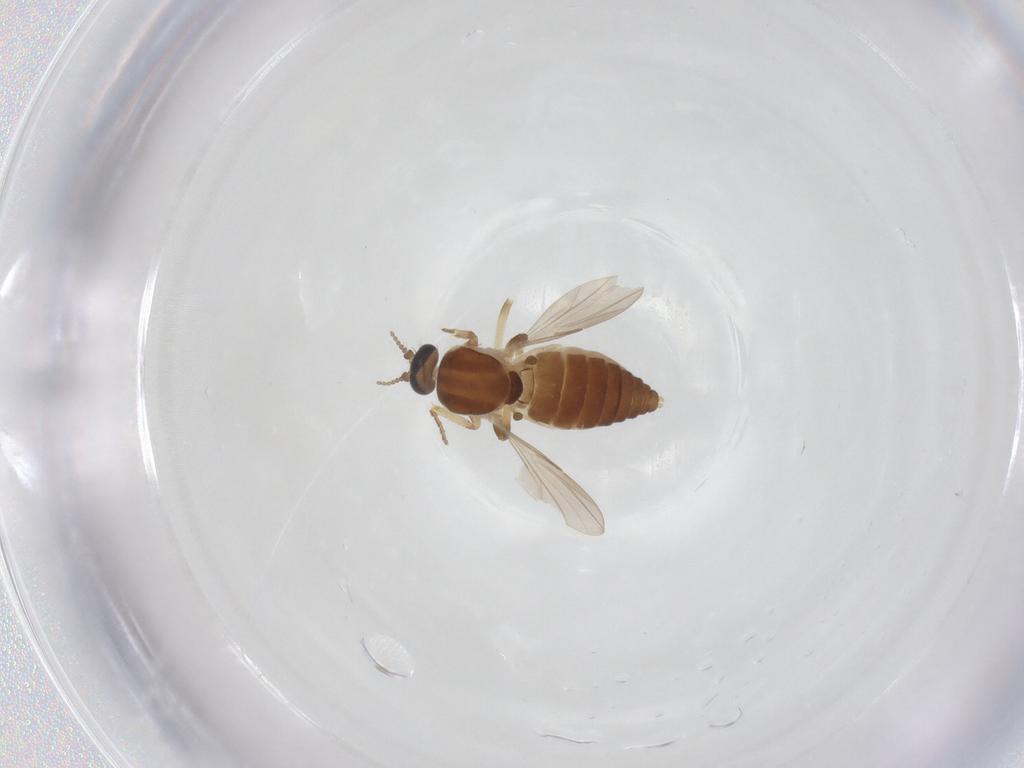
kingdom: Animalia
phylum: Arthropoda
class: Insecta
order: Diptera
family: Ceratopogonidae
